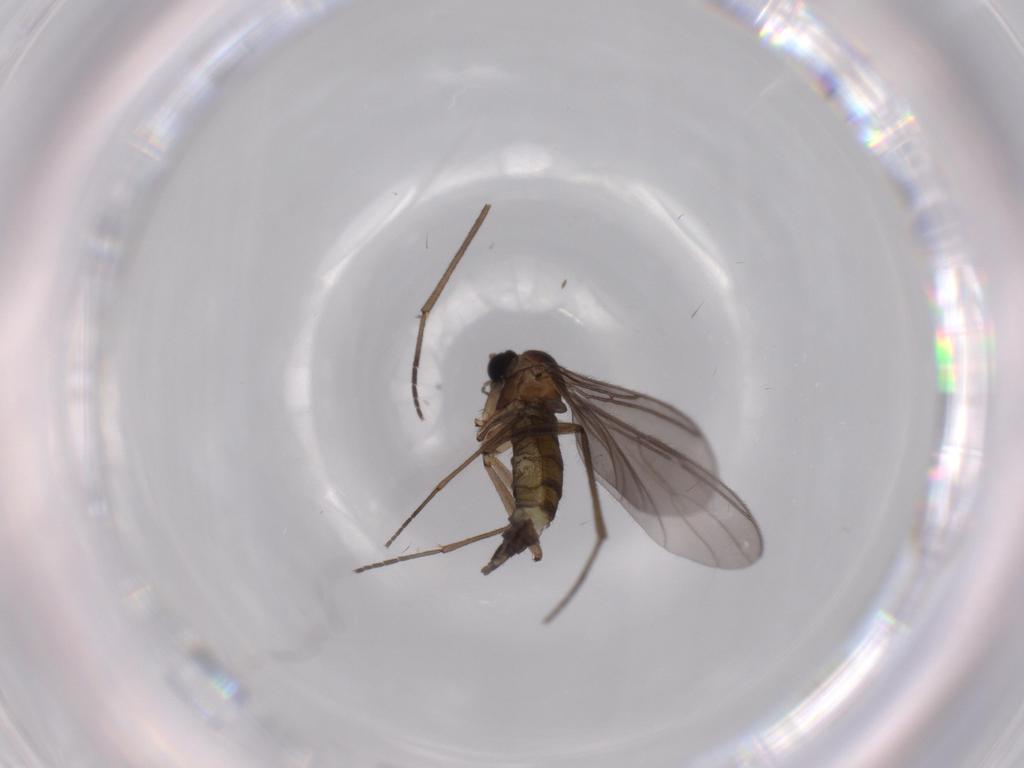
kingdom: Animalia
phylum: Arthropoda
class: Insecta
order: Diptera
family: Sciaridae
